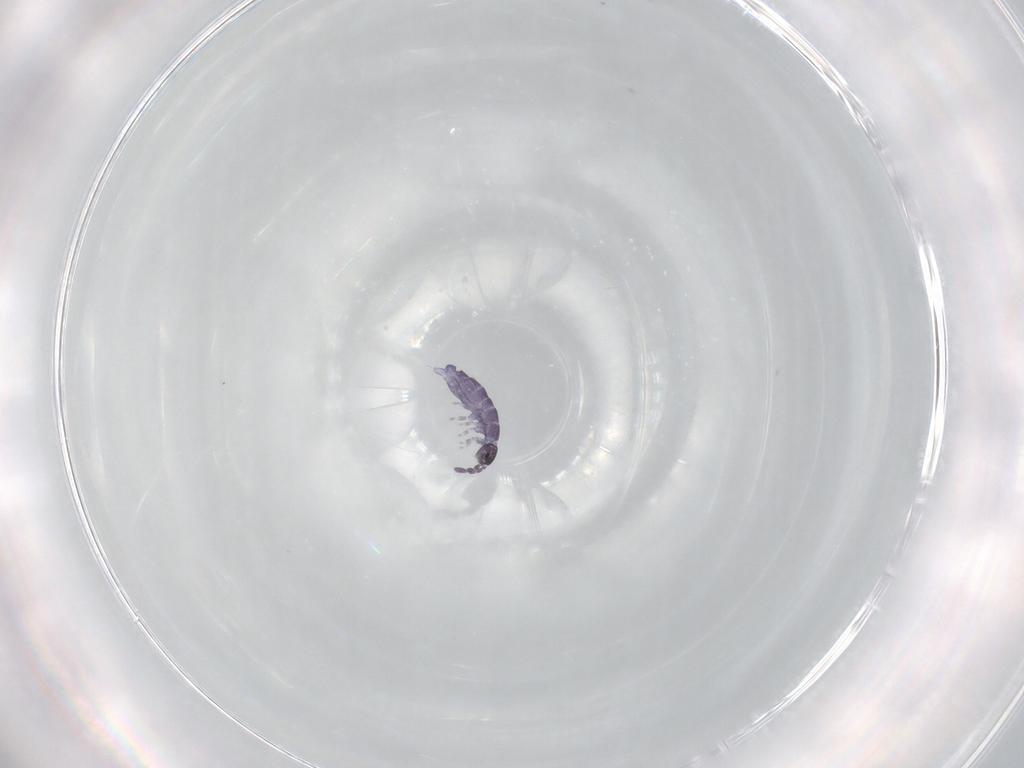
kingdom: Animalia
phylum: Arthropoda
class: Collembola
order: Entomobryomorpha
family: Isotomidae
